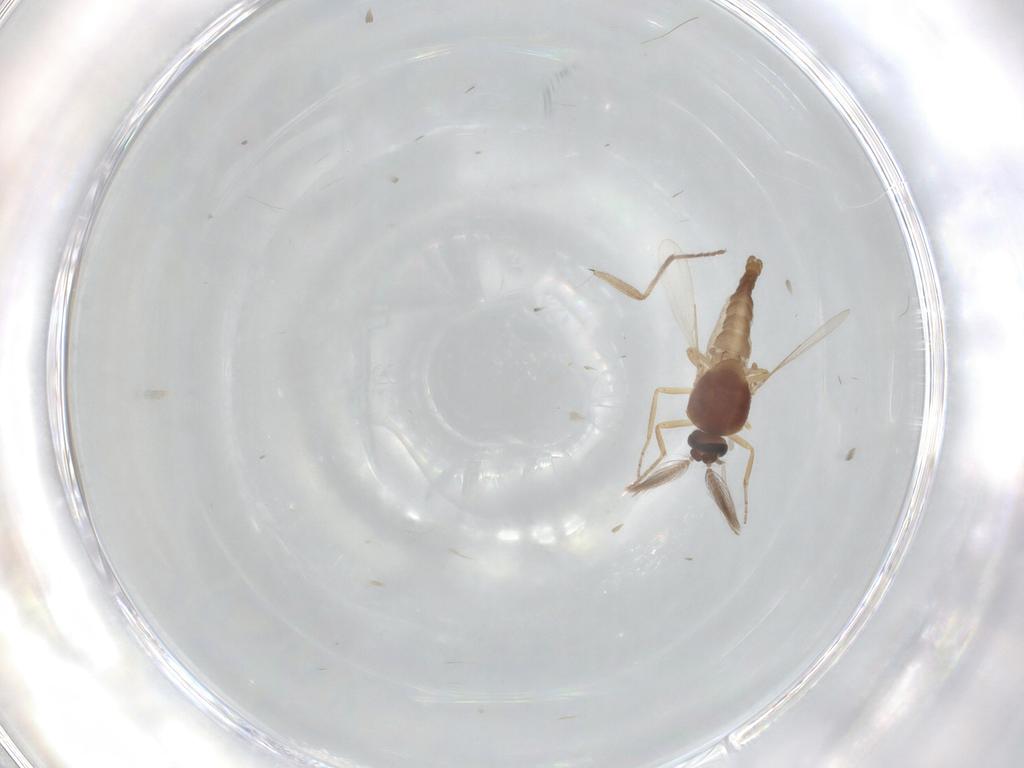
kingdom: Animalia
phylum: Arthropoda
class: Insecta
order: Diptera
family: Ceratopogonidae
